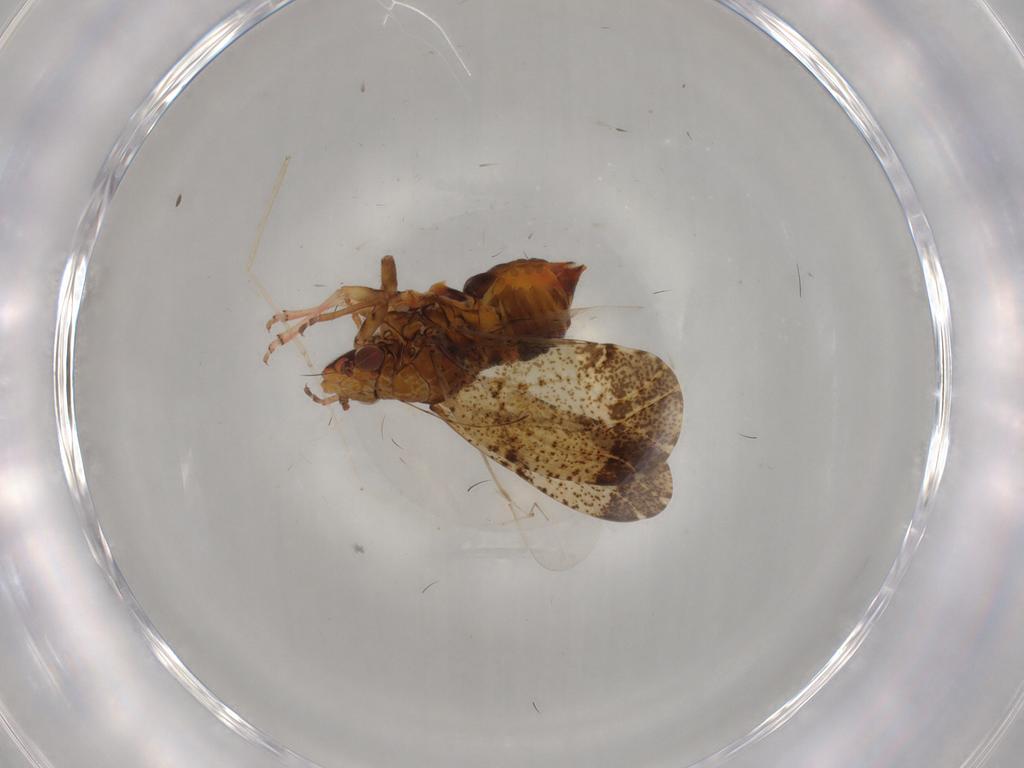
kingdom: Animalia
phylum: Arthropoda
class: Insecta
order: Hemiptera
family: Psyllidae
